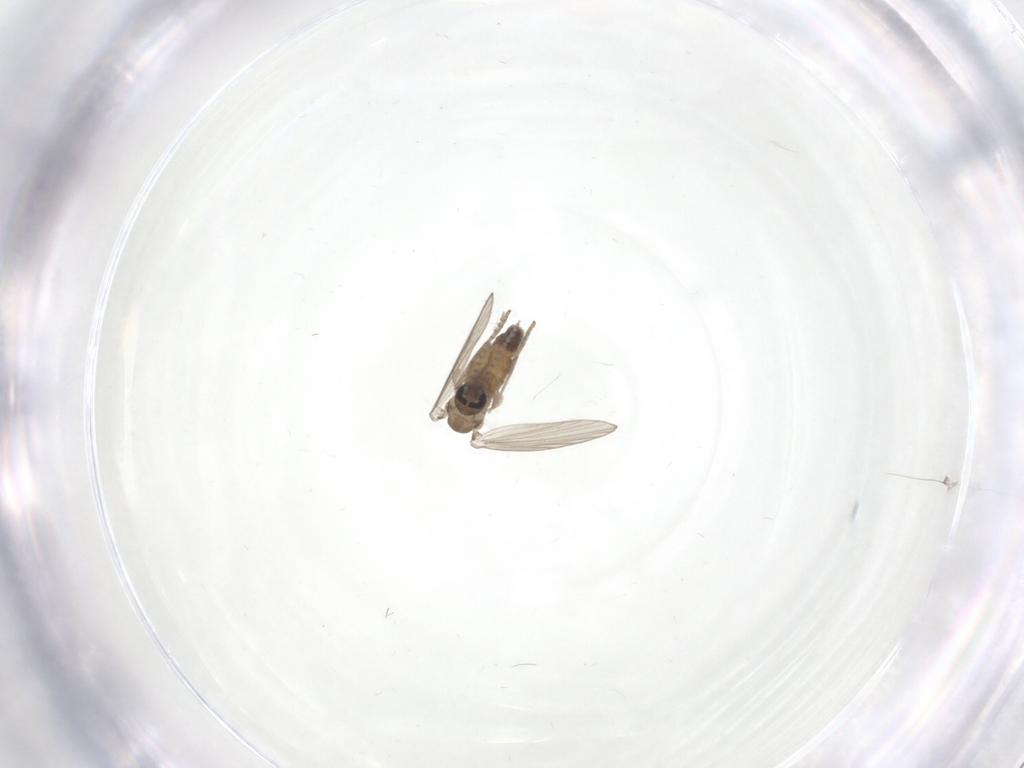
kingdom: Animalia
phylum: Arthropoda
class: Insecta
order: Diptera
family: Psychodidae
